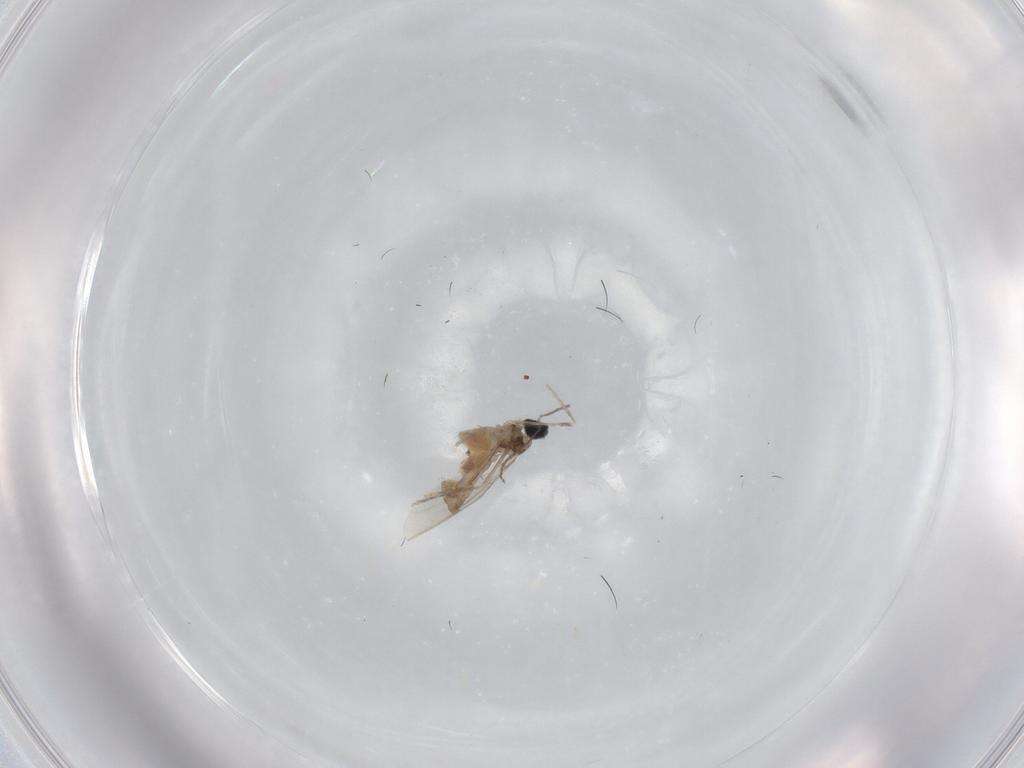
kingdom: Animalia
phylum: Arthropoda
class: Insecta
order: Diptera
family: Cecidomyiidae
